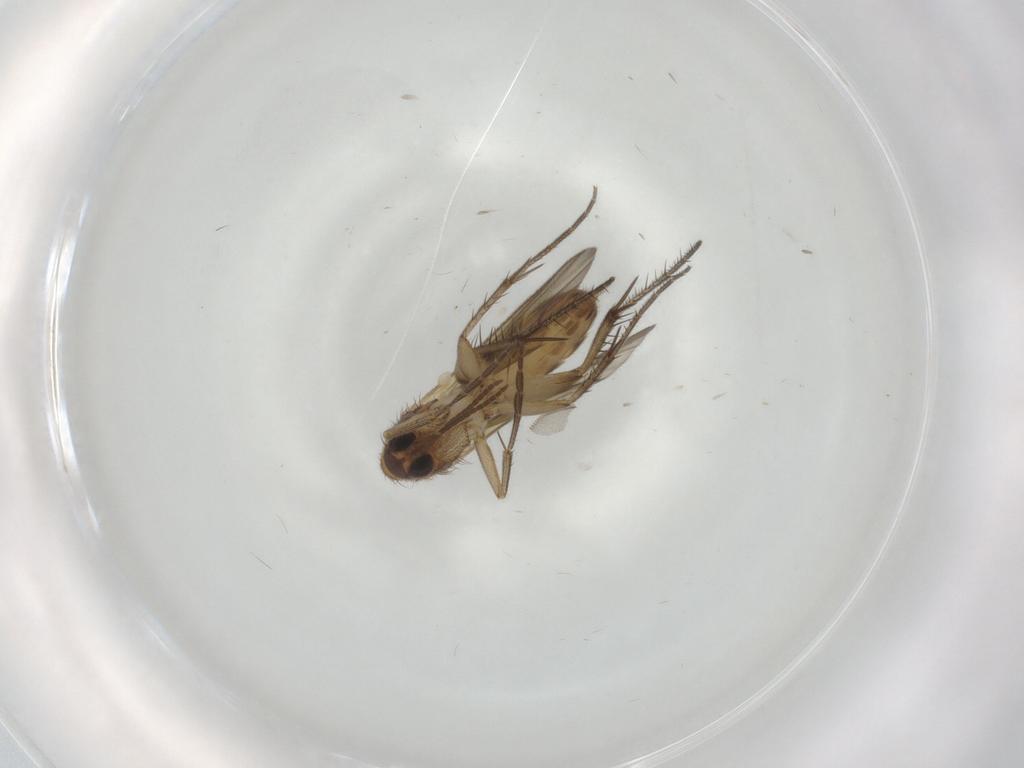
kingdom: Animalia
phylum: Arthropoda
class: Insecta
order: Diptera
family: Mycetophilidae
